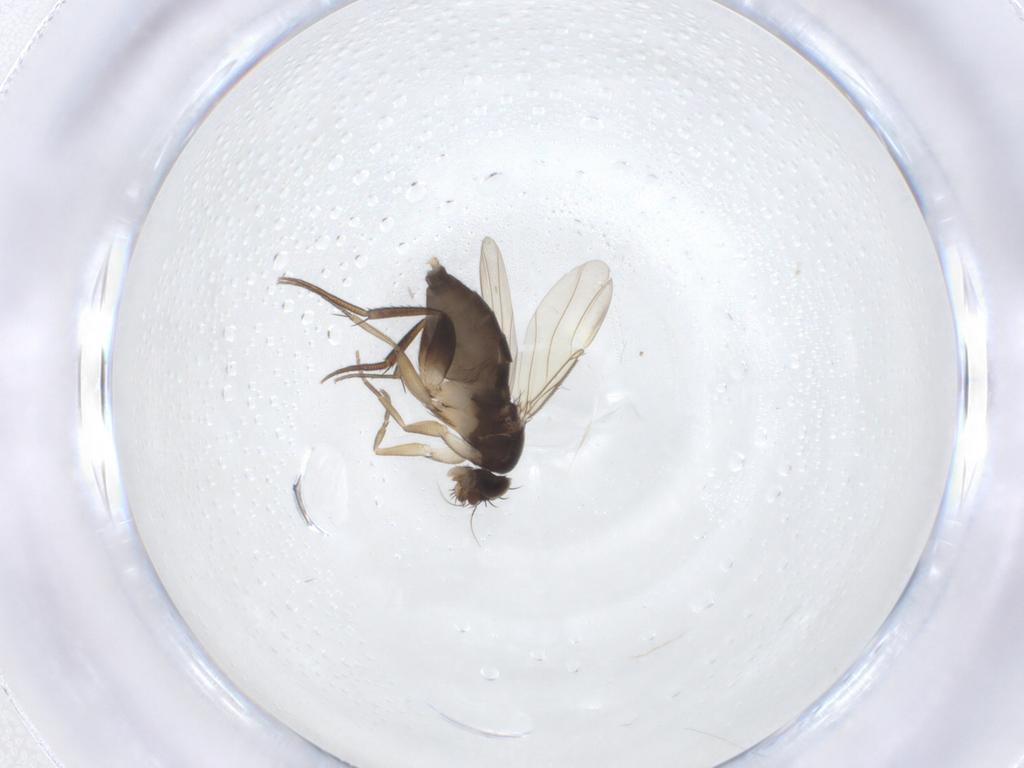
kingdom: Animalia
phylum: Arthropoda
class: Insecta
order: Diptera
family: Phoridae
